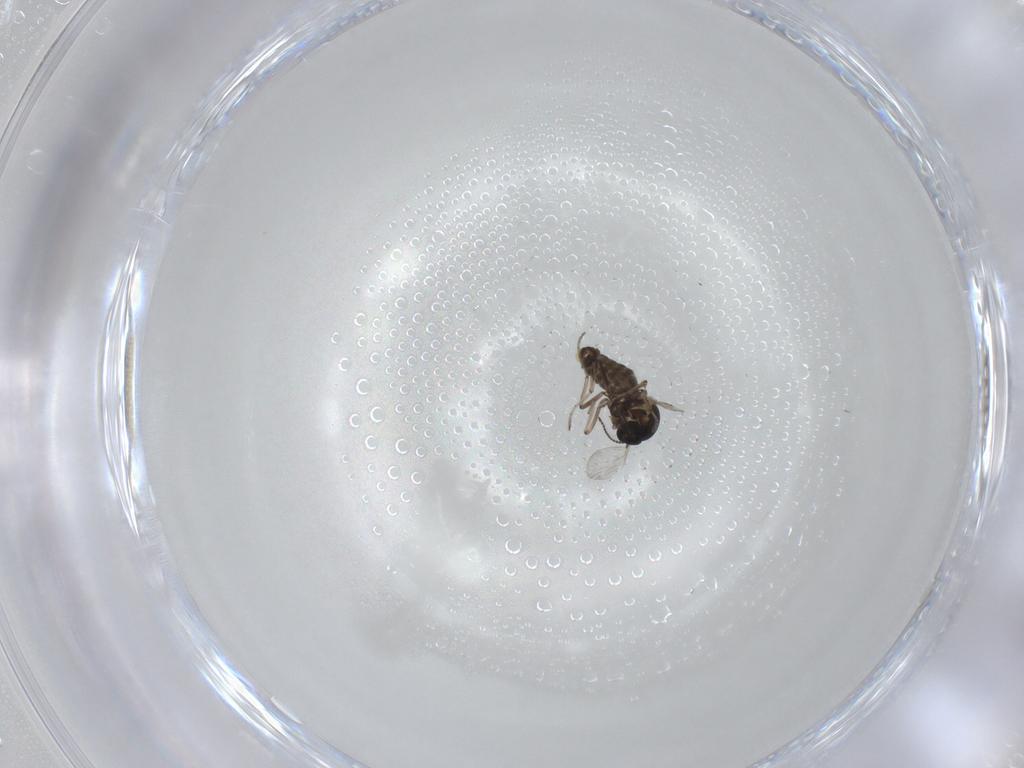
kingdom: Animalia
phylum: Arthropoda
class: Insecta
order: Diptera
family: Ceratopogonidae
